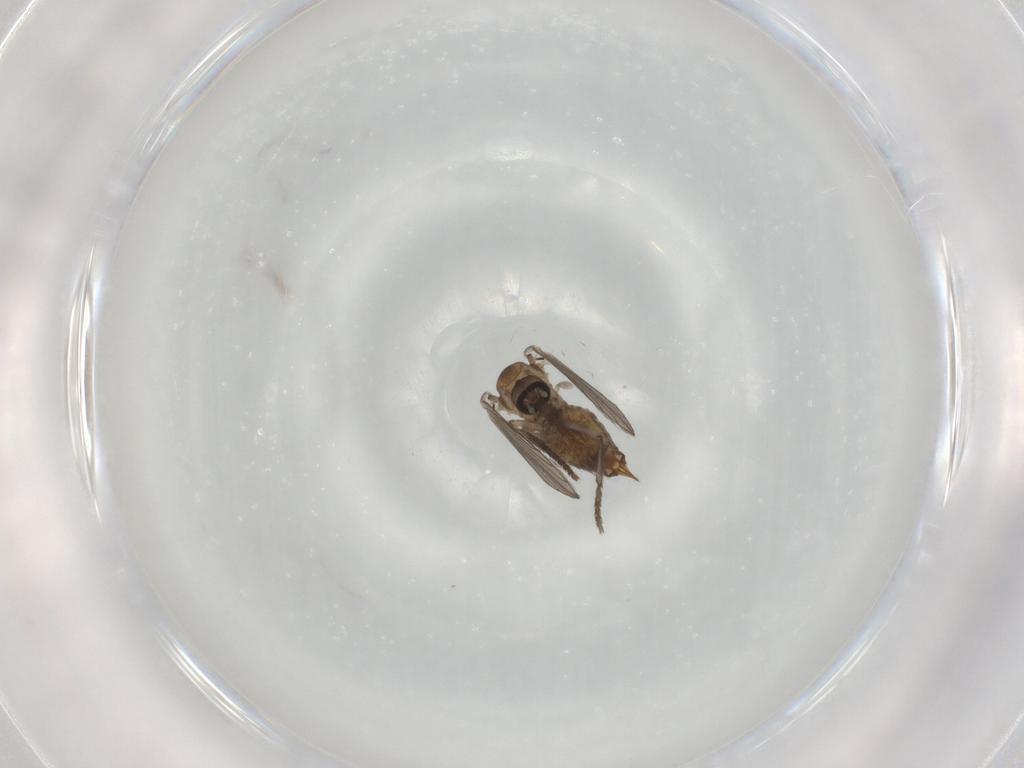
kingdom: Animalia
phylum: Arthropoda
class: Insecta
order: Diptera
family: Psychodidae
